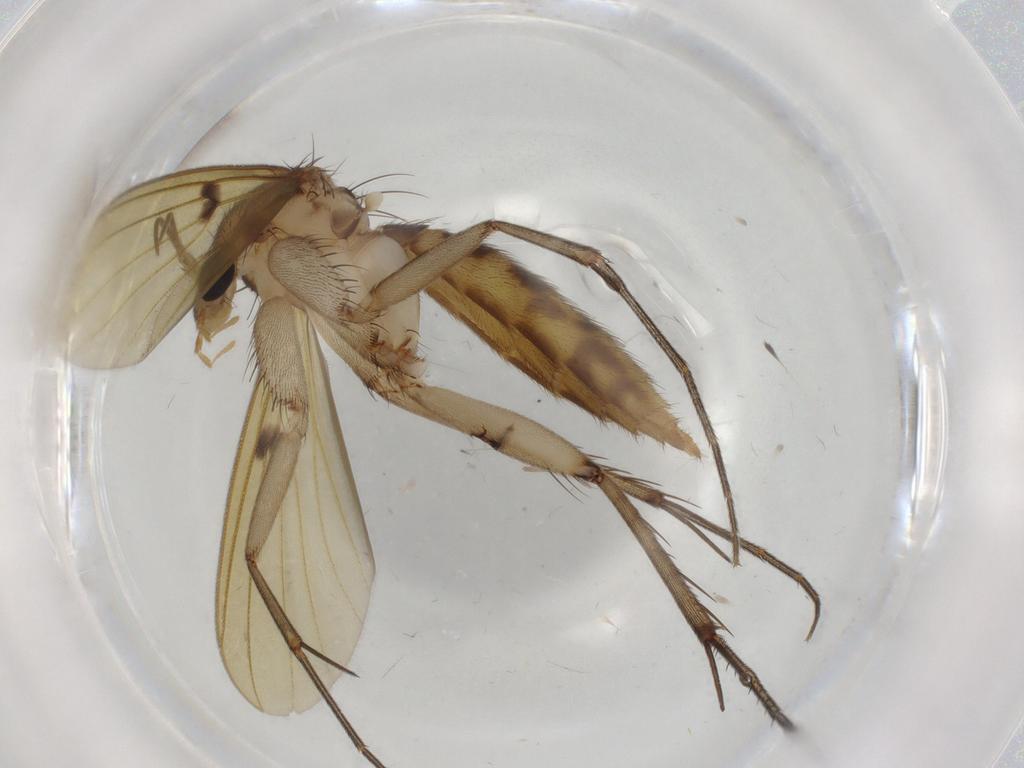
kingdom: Animalia
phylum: Arthropoda
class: Insecta
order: Diptera
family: Mycetophilidae
